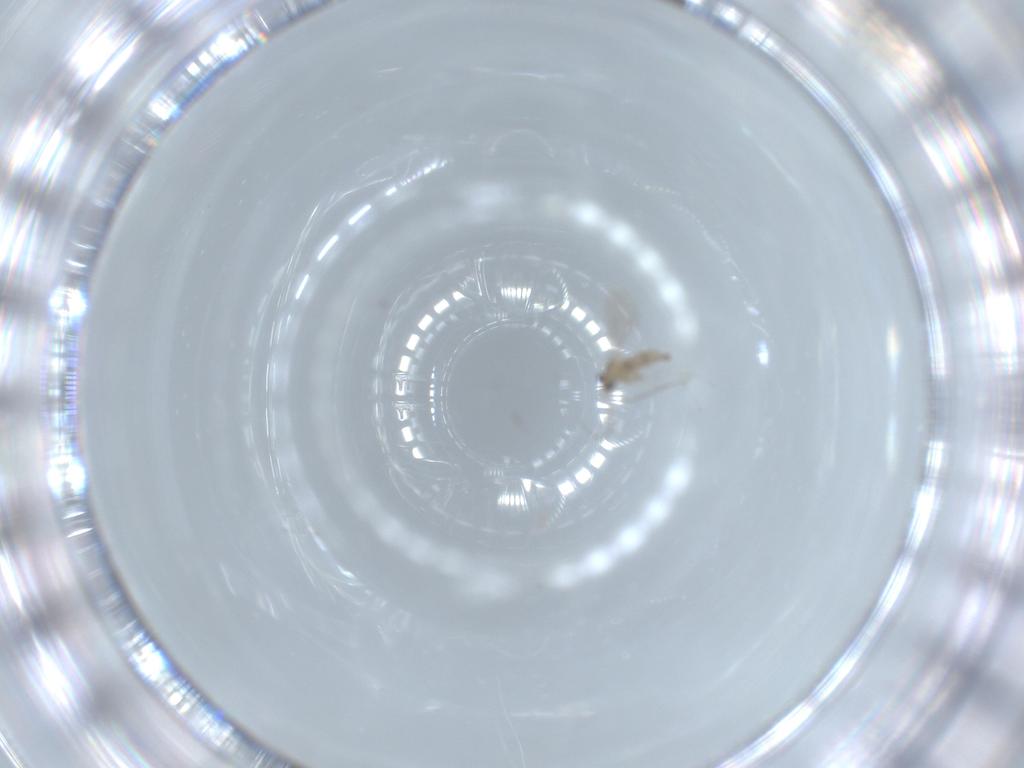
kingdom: Animalia
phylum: Arthropoda
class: Insecta
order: Diptera
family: Cecidomyiidae
